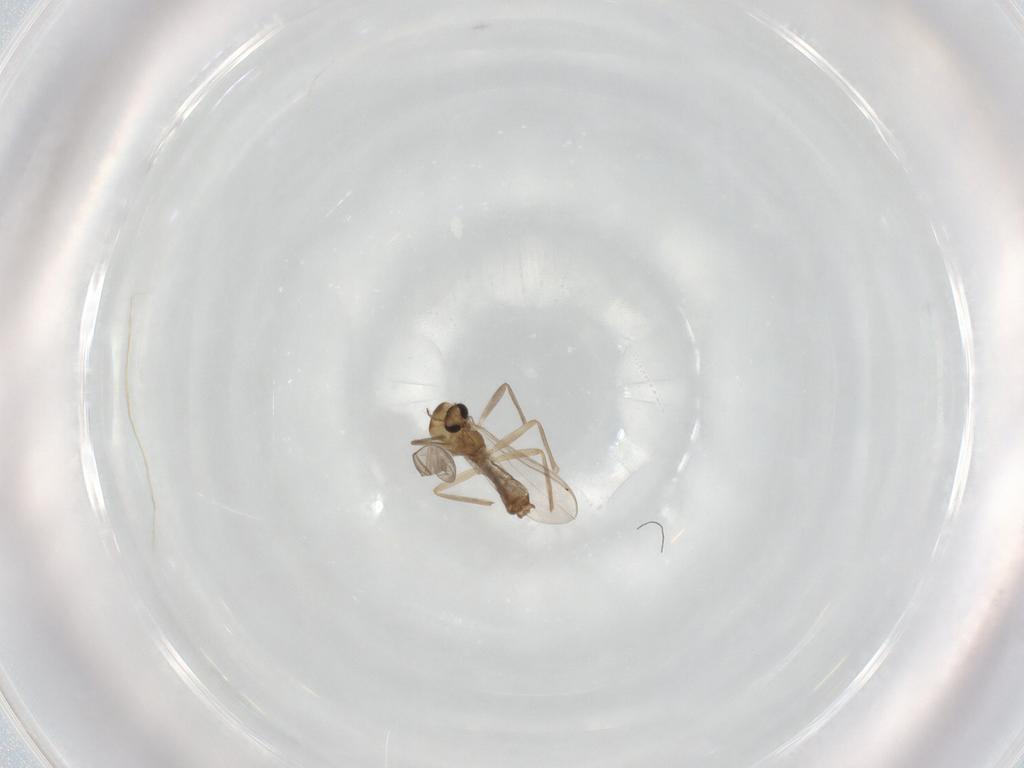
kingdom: Animalia
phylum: Arthropoda
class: Insecta
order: Diptera
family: Chironomidae
